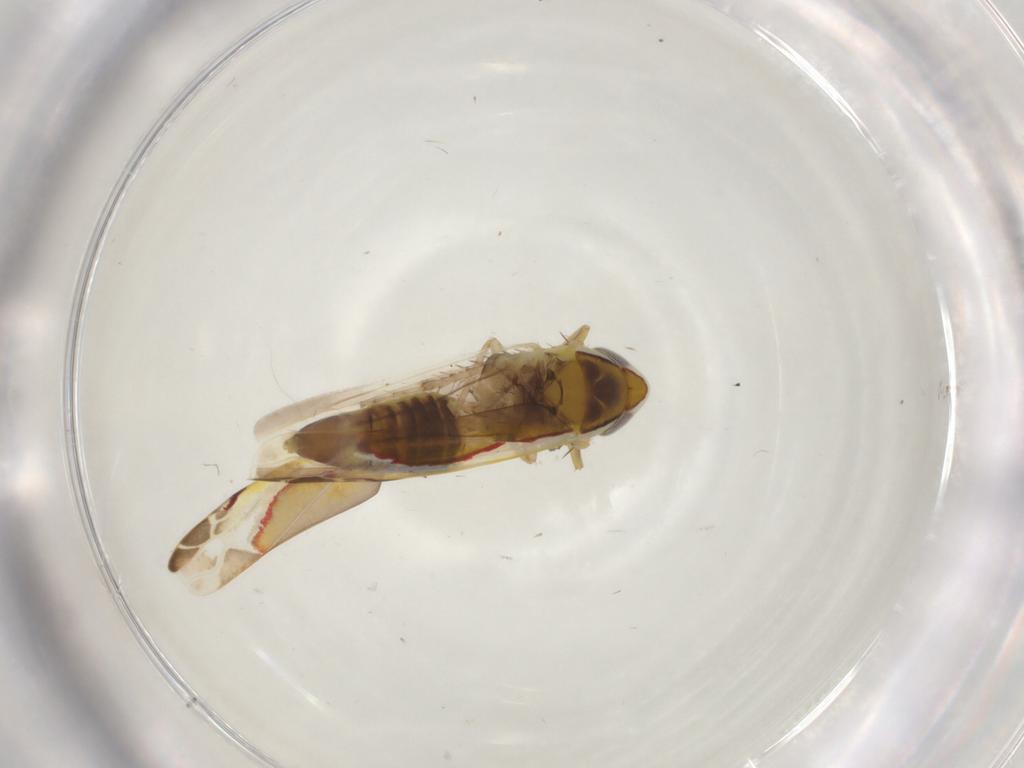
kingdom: Animalia
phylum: Arthropoda
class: Insecta
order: Hemiptera
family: Cicadellidae
